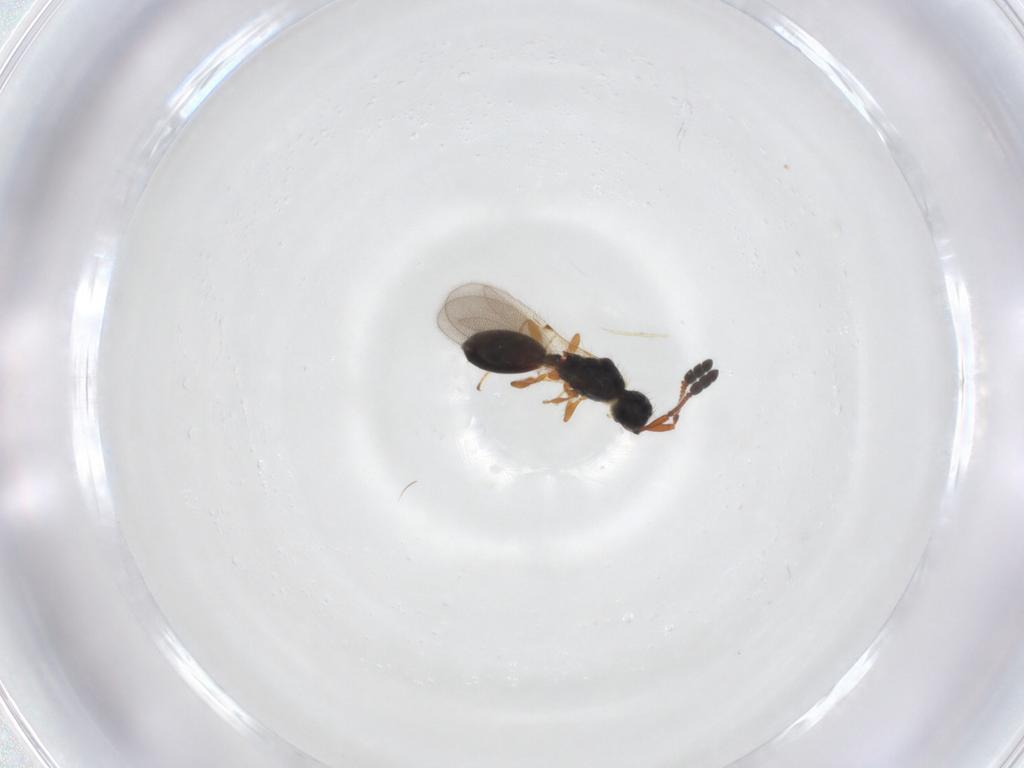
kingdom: Animalia
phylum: Arthropoda
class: Insecta
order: Hymenoptera
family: Diapriidae
